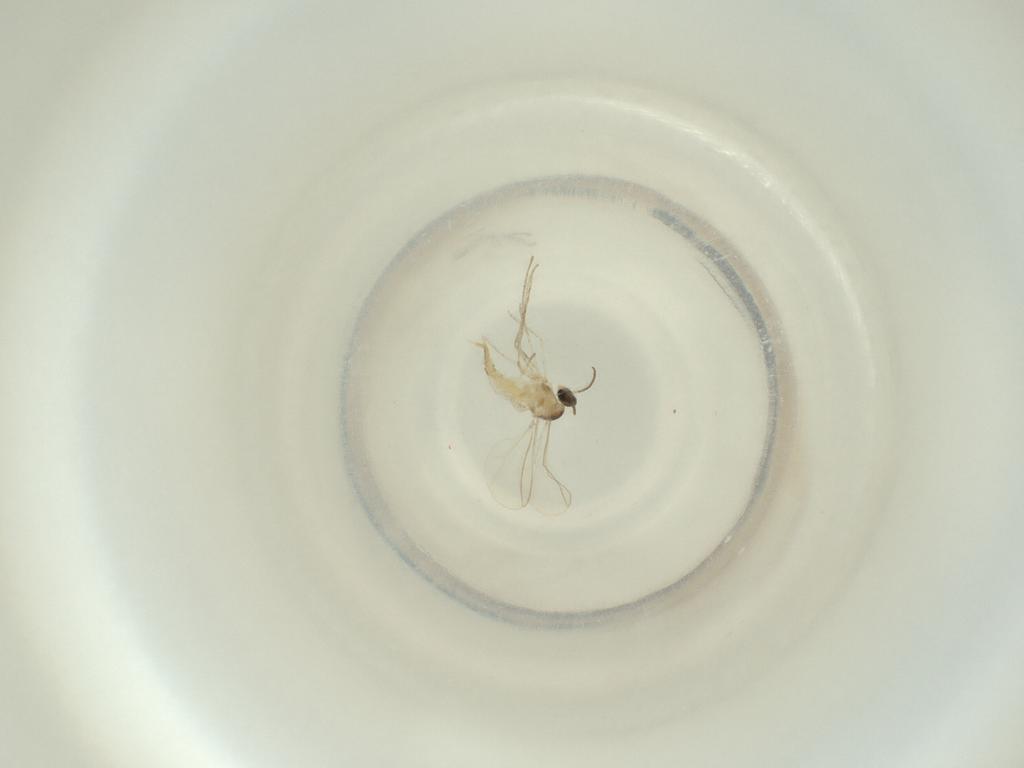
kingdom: Animalia
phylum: Arthropoda
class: Insecta
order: Diptera
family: Cecidomyiidae
